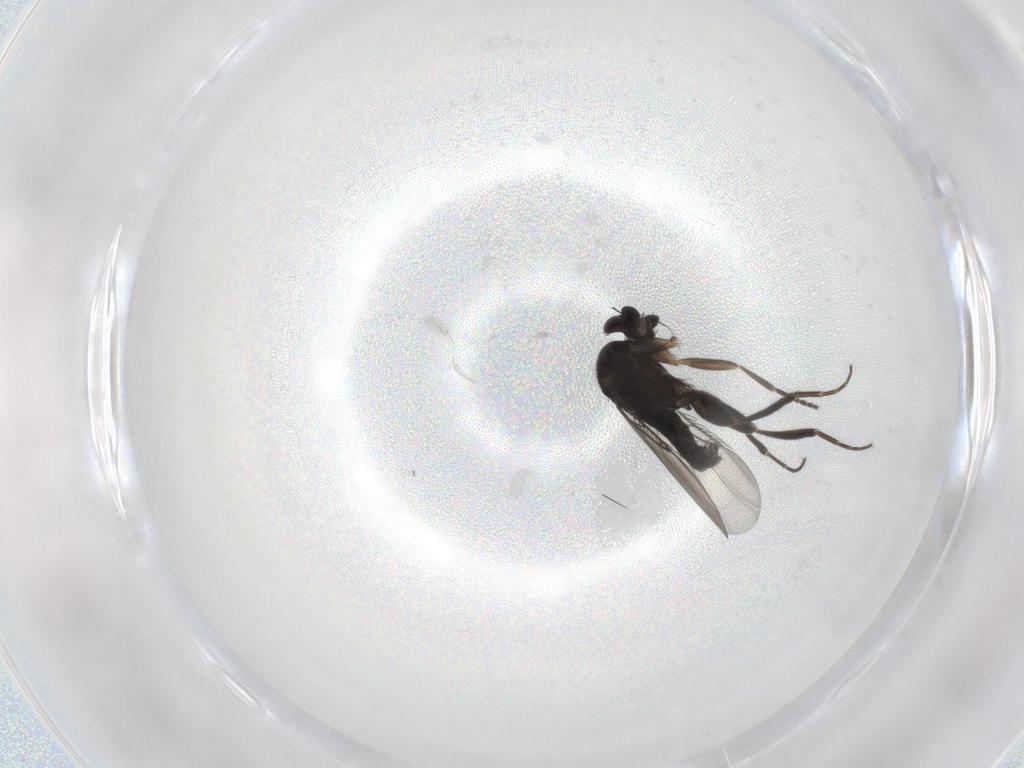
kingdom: Animalia
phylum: Arthropoda
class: Insecta
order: Diptera
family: Phoridae
